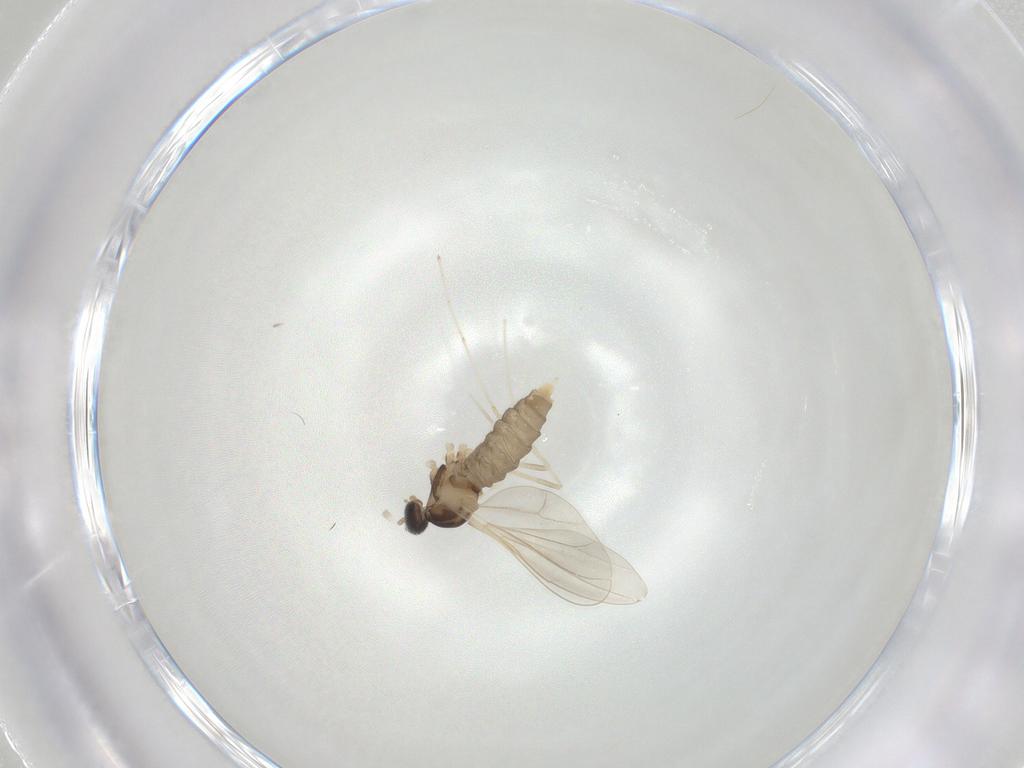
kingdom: Animalia
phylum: Arthropoda
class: Insecta
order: Diptera
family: Cecidomyiidae
